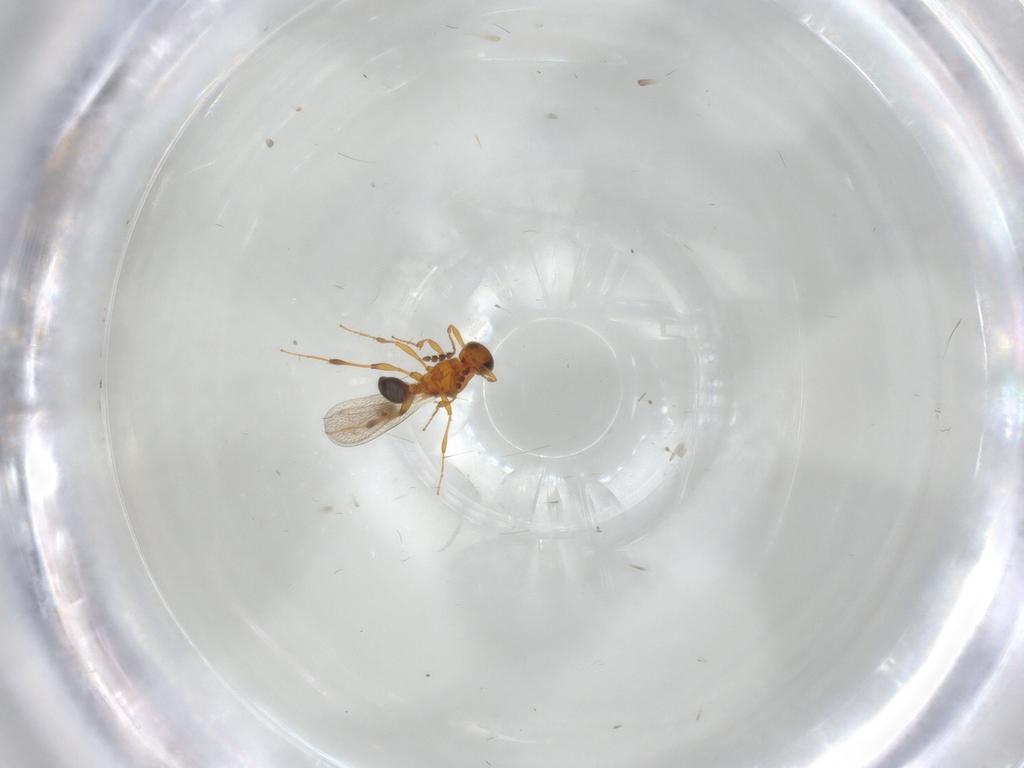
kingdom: Animalia
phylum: Arthropoda
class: Insecta
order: Hymenoptera
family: Platygastridae
